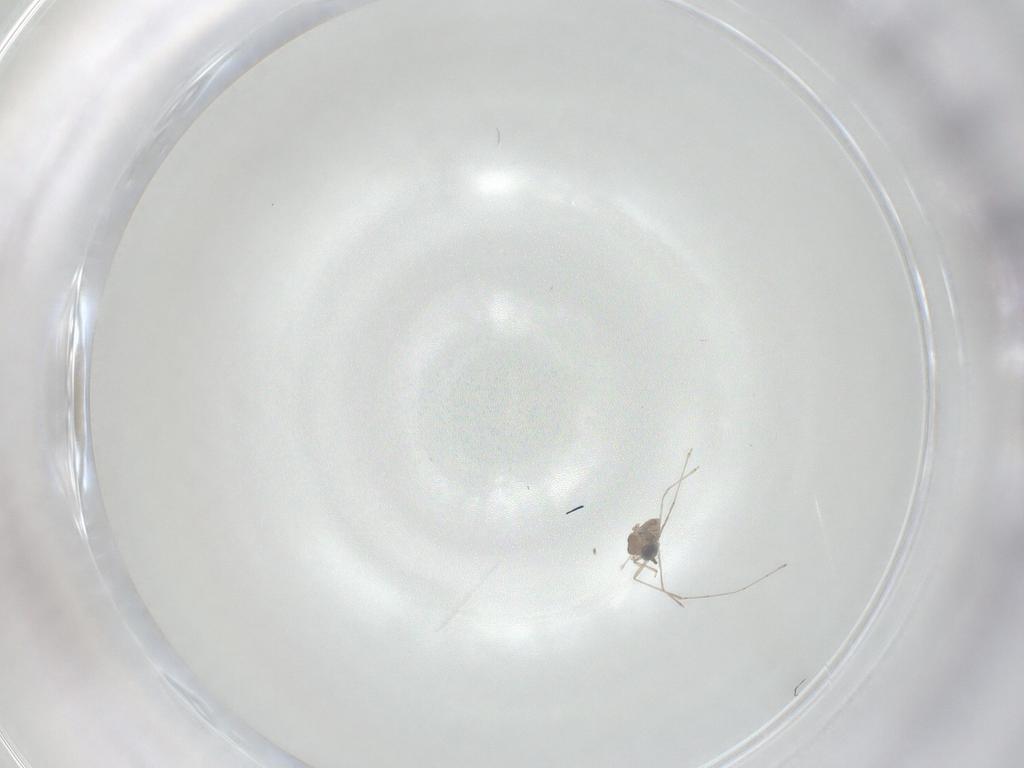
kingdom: Animalia
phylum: Arthropoda
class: Insecta
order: Diptera
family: Cecidomyiidae
